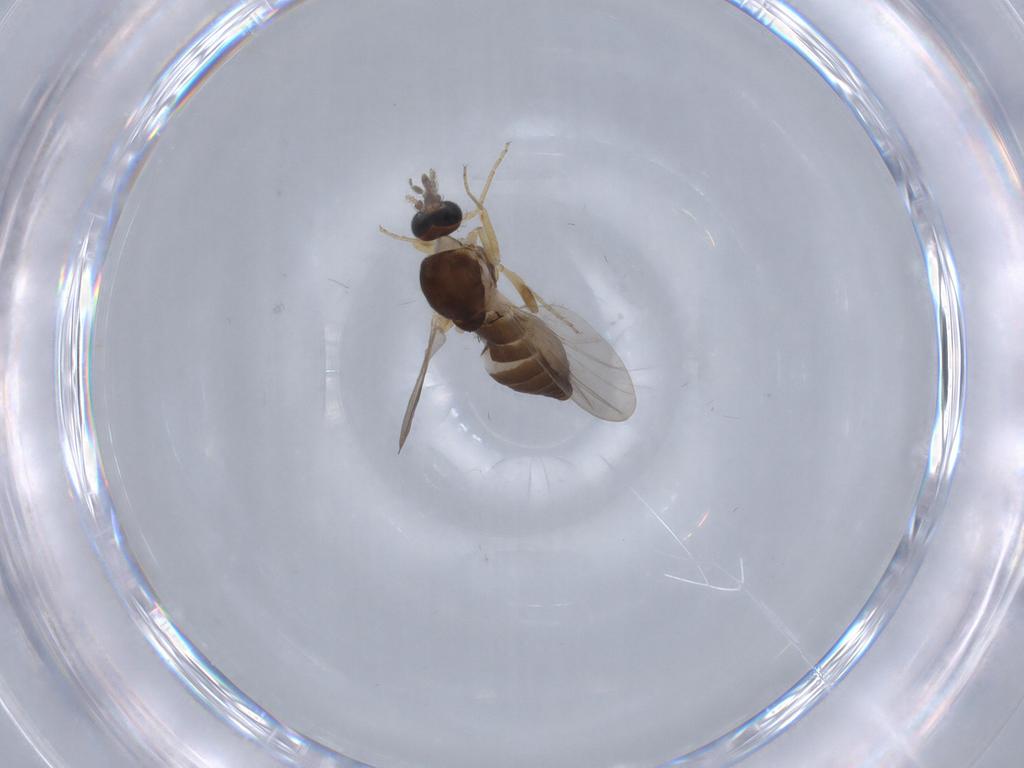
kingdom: Animalia
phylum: Arthropoda
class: Insecta
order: Diptera
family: Ceratopogonidae
